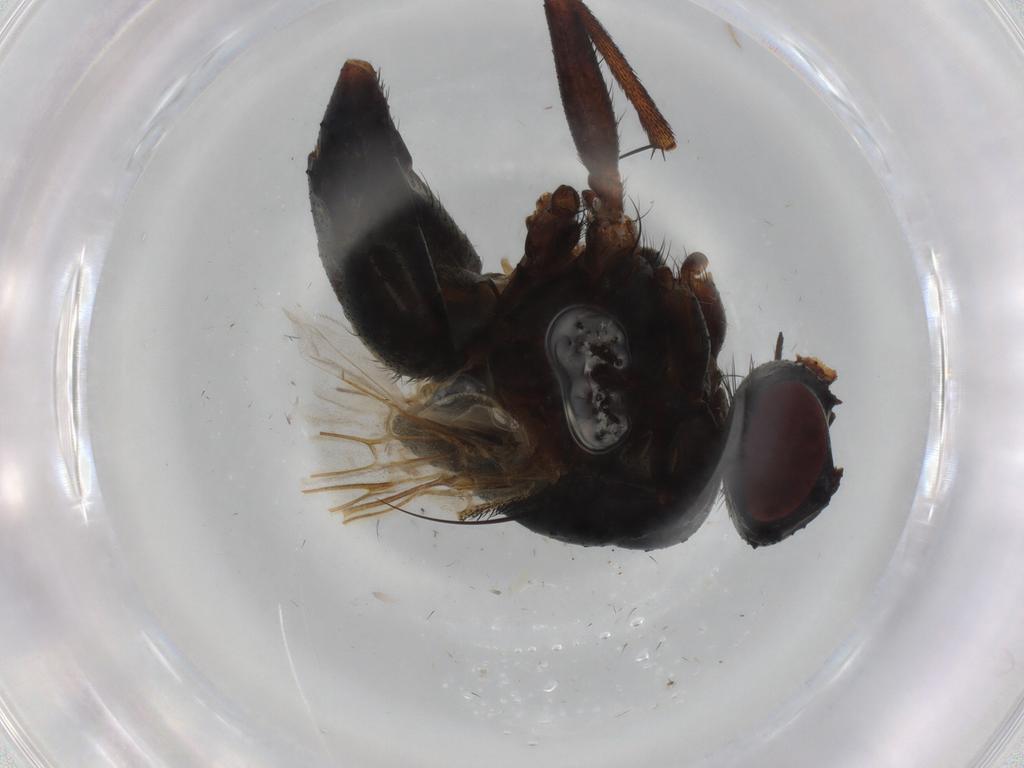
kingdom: Animalia
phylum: Arthropoda
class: Insecta
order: Diptera
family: Muscidae
